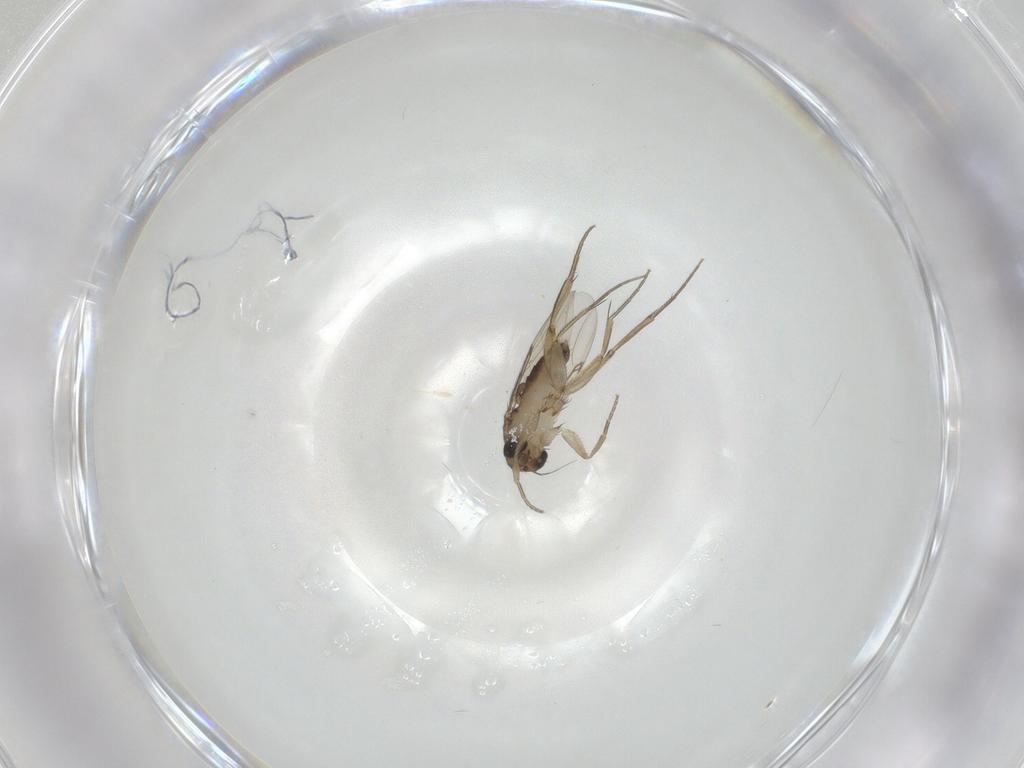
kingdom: Animalia
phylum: Arthropoda
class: Insecta
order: Diptera
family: Phoridae
